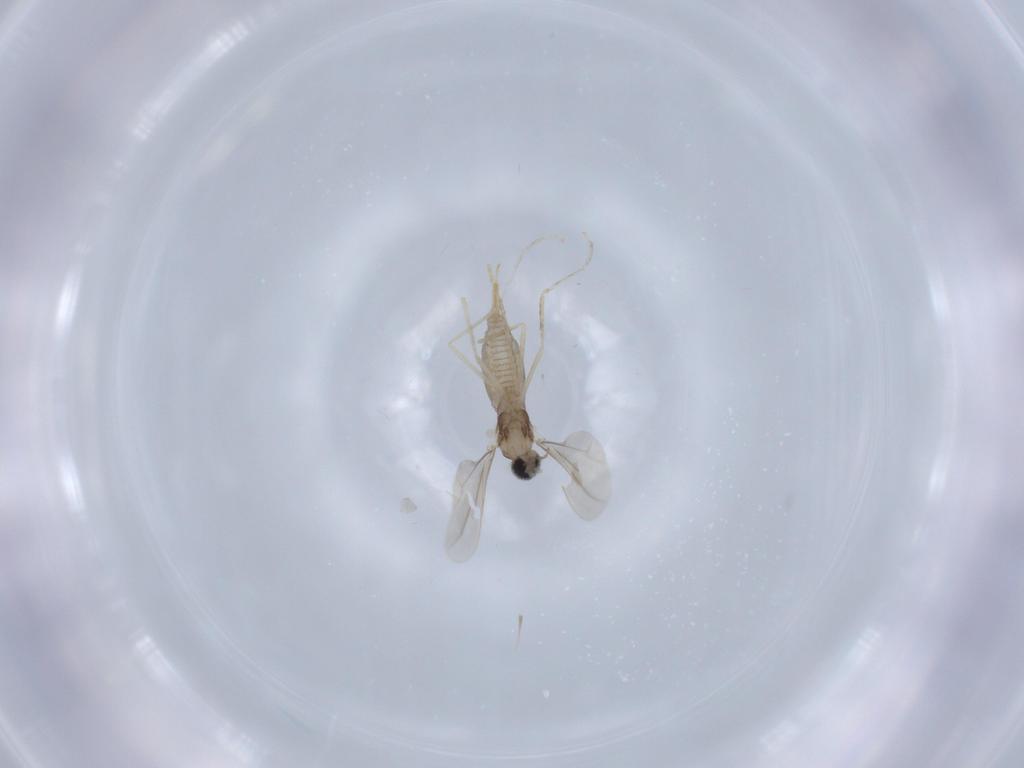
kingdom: Animalia
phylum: Arthropoda
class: Insecta
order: Diptera
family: Cecidomyiidae
